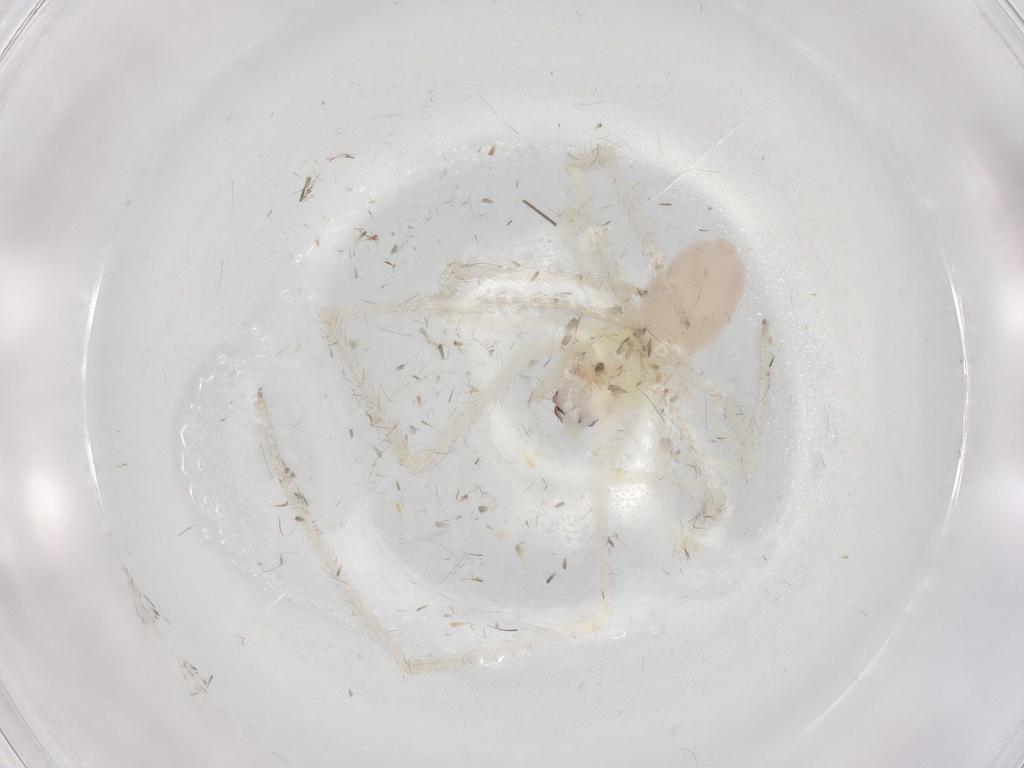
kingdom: Animalia
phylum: Arthropoda
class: Arachnida
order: Araneae
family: Theridiidae
